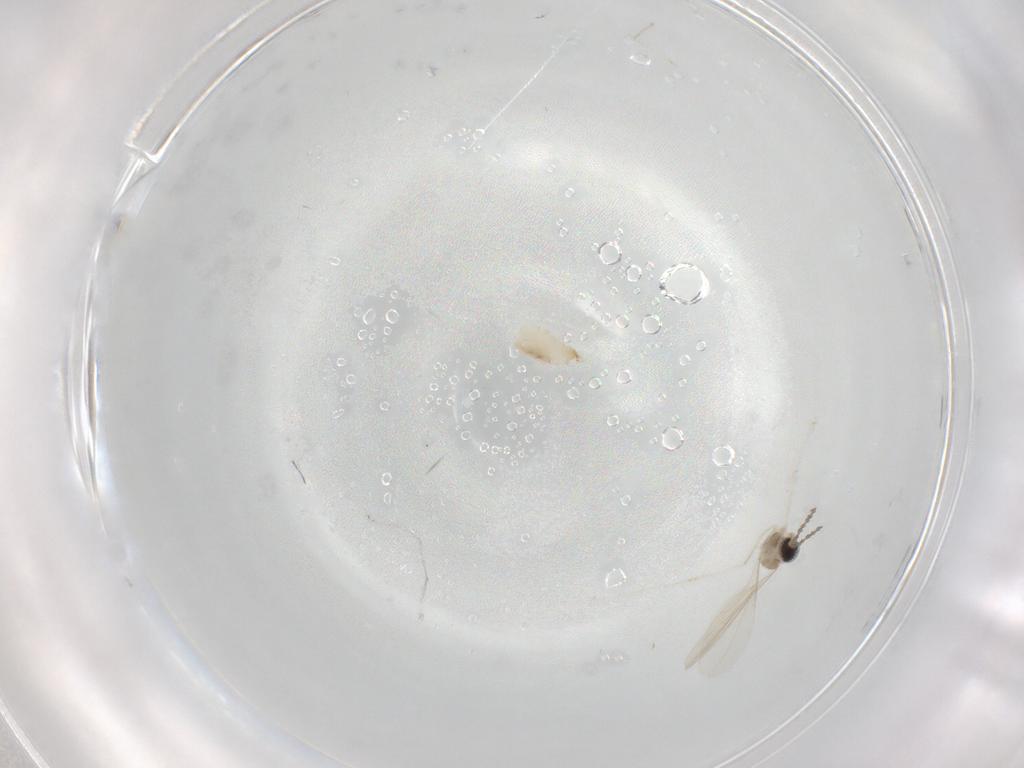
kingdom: Animalia
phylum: Arthropoda
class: Insecta
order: Diptera
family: Cecidomyiidae
